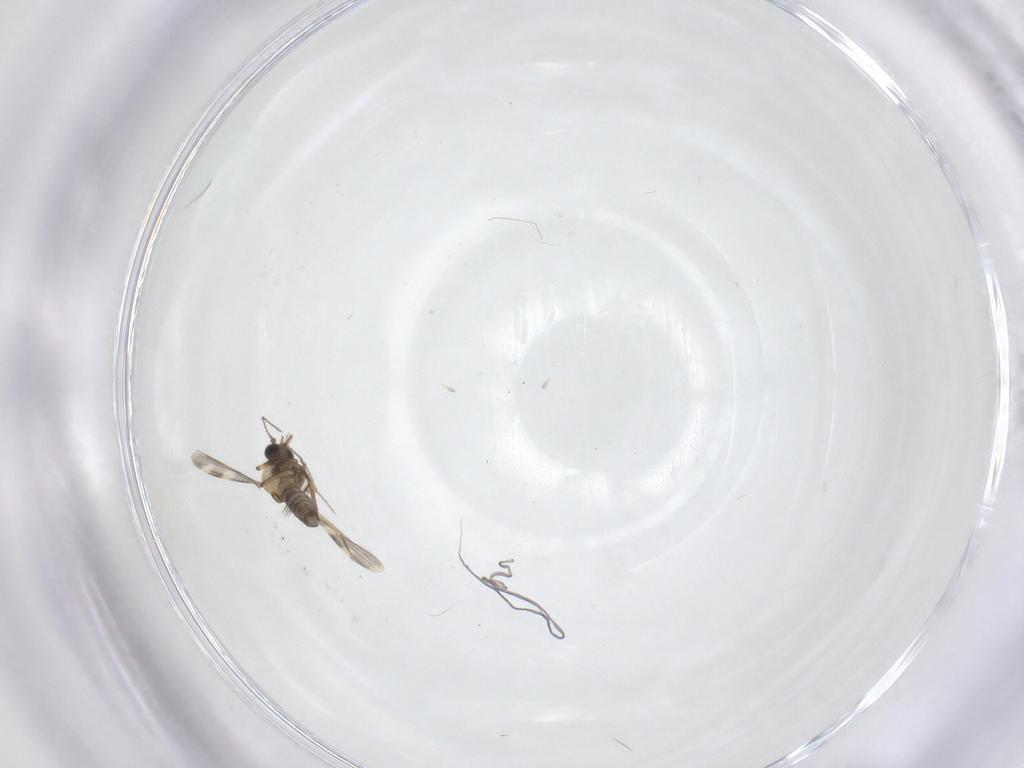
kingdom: Animalia
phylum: Arthropoda
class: Insecta
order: Diptera
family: Ceratopogonidae
